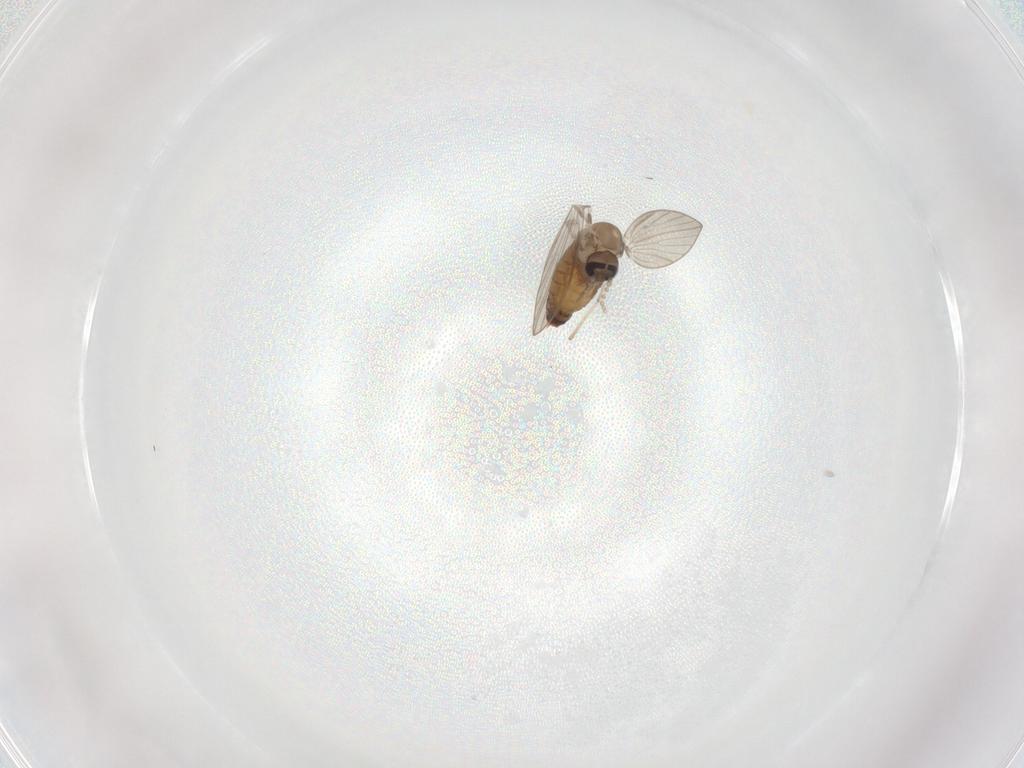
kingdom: Animalia
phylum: Arthropoda
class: Insecta
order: Diptera
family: Psychodidae
